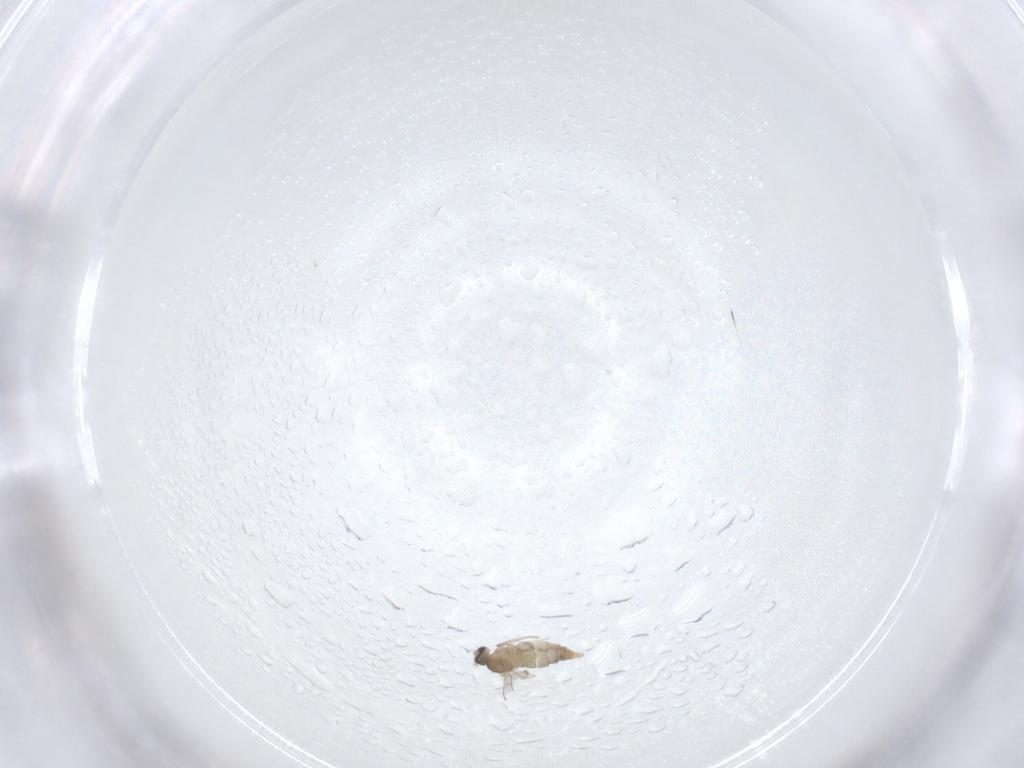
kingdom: Animalia
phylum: Arthropoda
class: Insecta
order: Diptera
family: Cecidomyiidae
